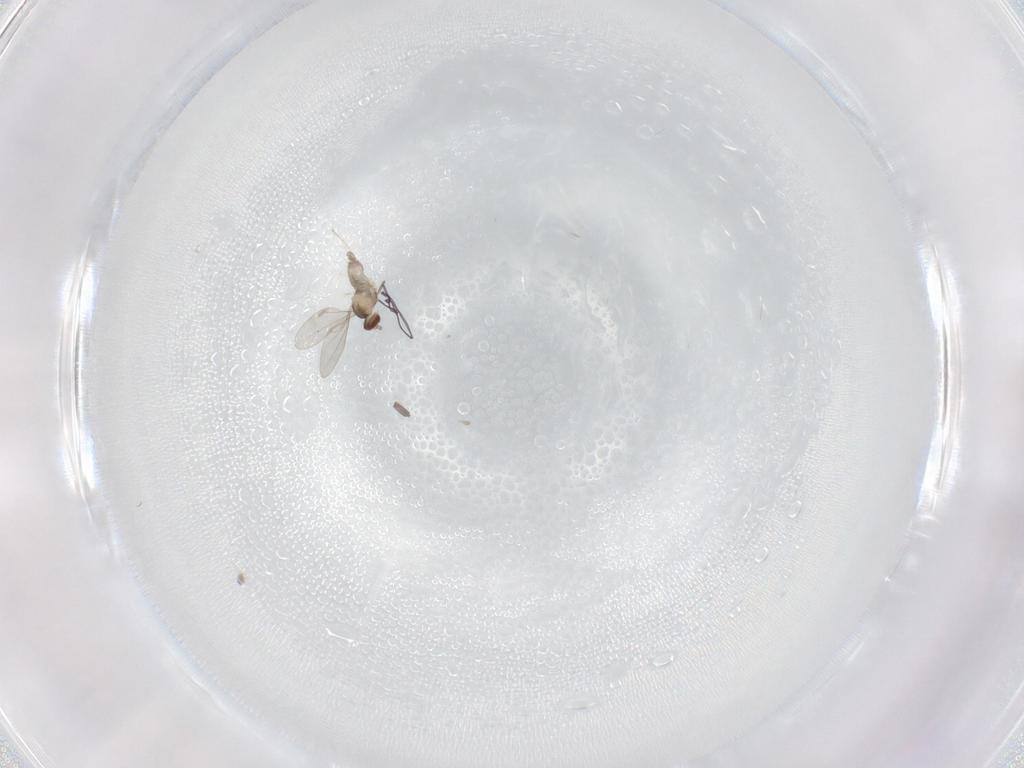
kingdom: Animalia
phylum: Arthropoda
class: Insecta
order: Diptera
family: Cecidomyiidae
